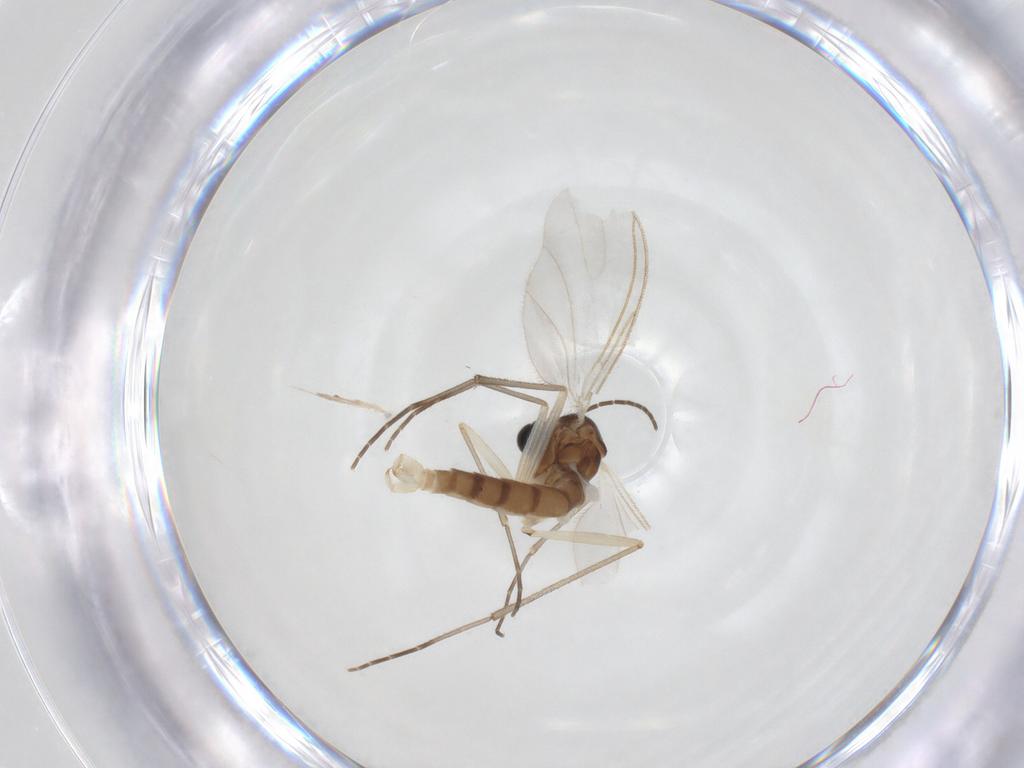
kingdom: Animalia
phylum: Arthropoda
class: Insecta
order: Diptera
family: Sciaridae
